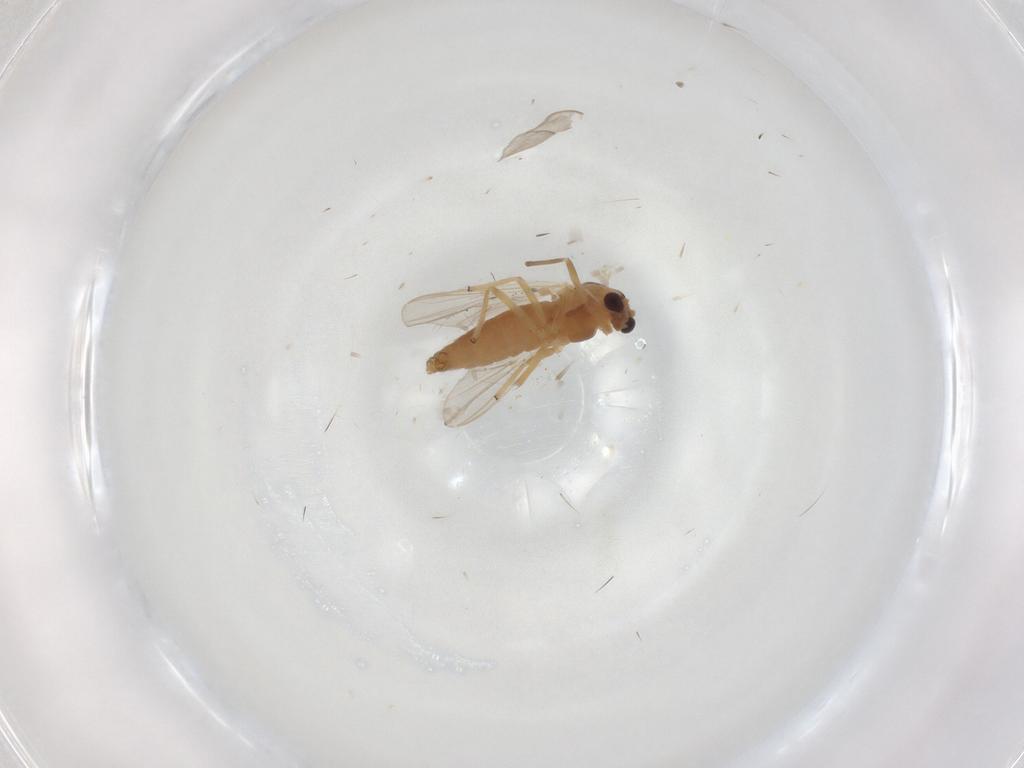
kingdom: Animalia
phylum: Arthropoda
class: Insecta
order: Diptera
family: Chironomidae
